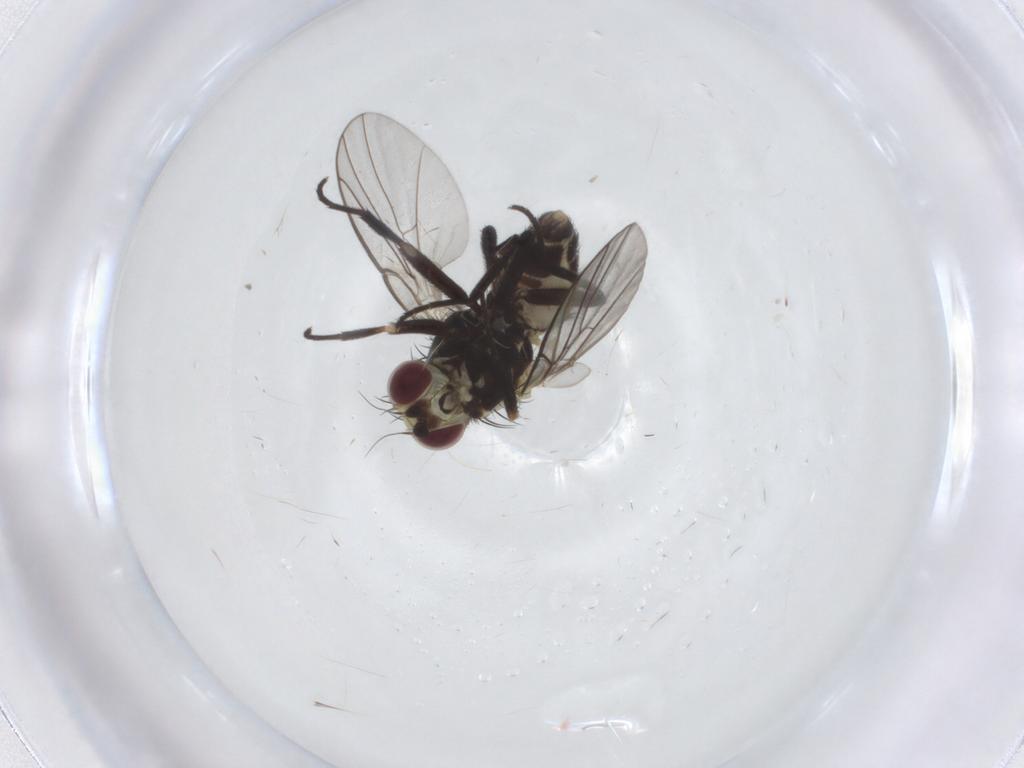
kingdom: Animalia
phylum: Arthropoda
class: Insecta
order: Diptera
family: Agromyzidae
